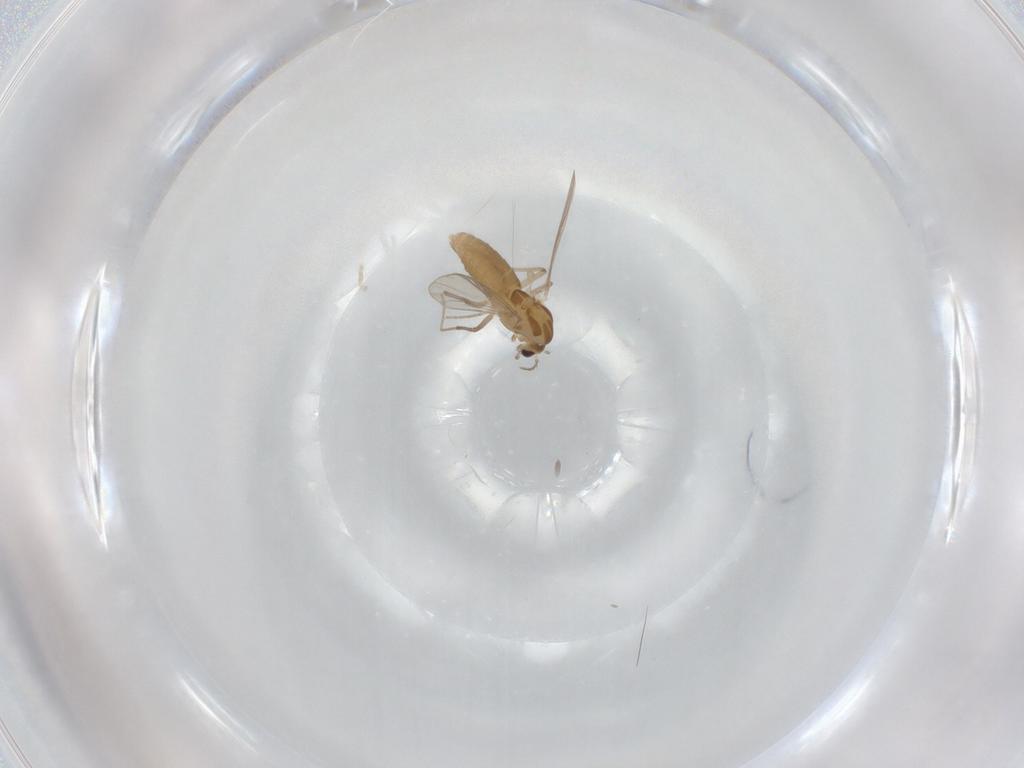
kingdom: Animalia
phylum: Arthropoda
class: Insecta
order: Diptera
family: Chironomidae
